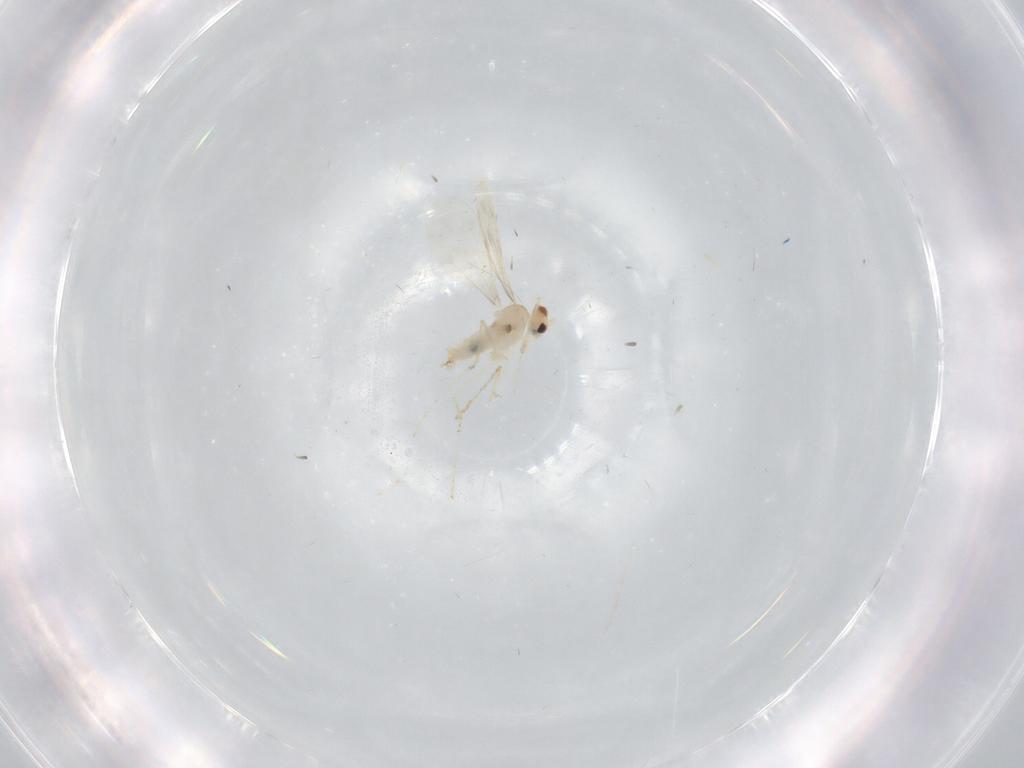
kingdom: Animalia
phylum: Arthropoda
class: Insecta
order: Diptera
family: Cecidomyiidae
